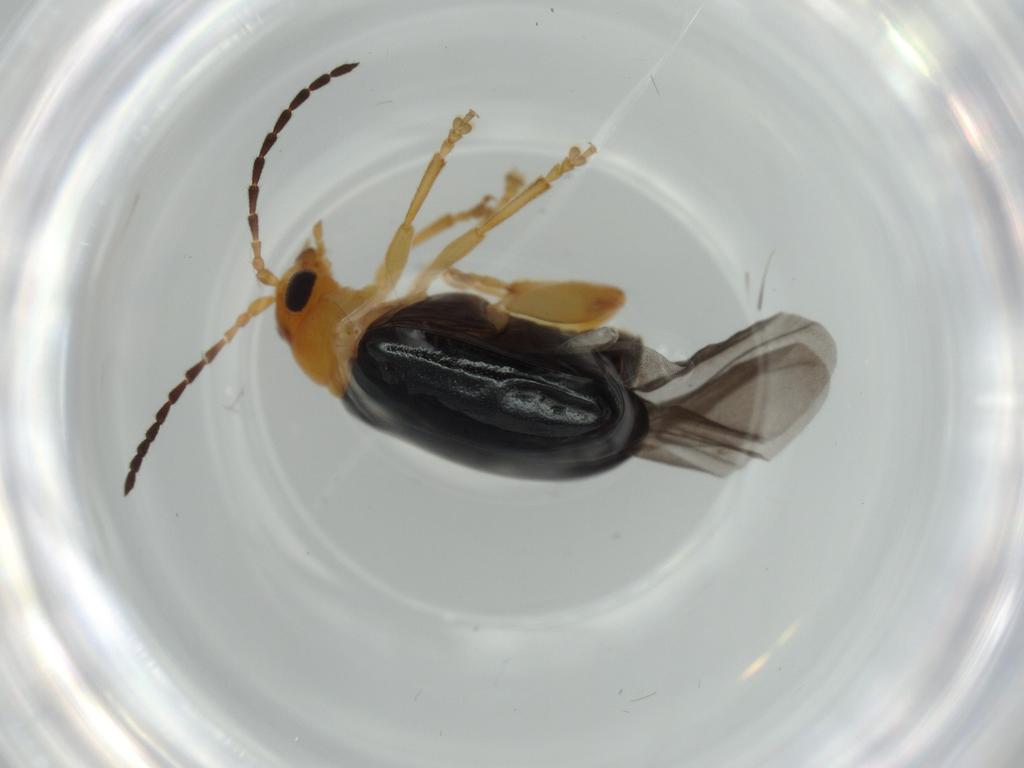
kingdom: Animalia
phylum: Arthropoda
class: Insecta
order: Coleoptera
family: Chrysomelidae
